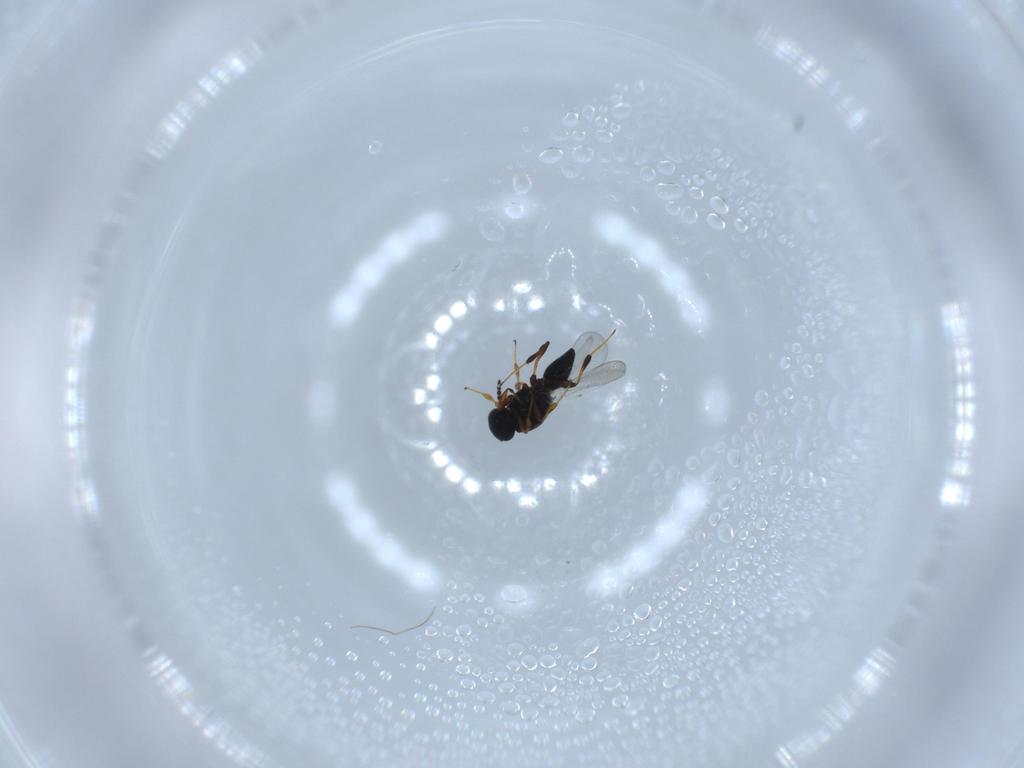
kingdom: Animalia
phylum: Arthropoda
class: Insecta
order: Hymenoptera
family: Platygastridae
